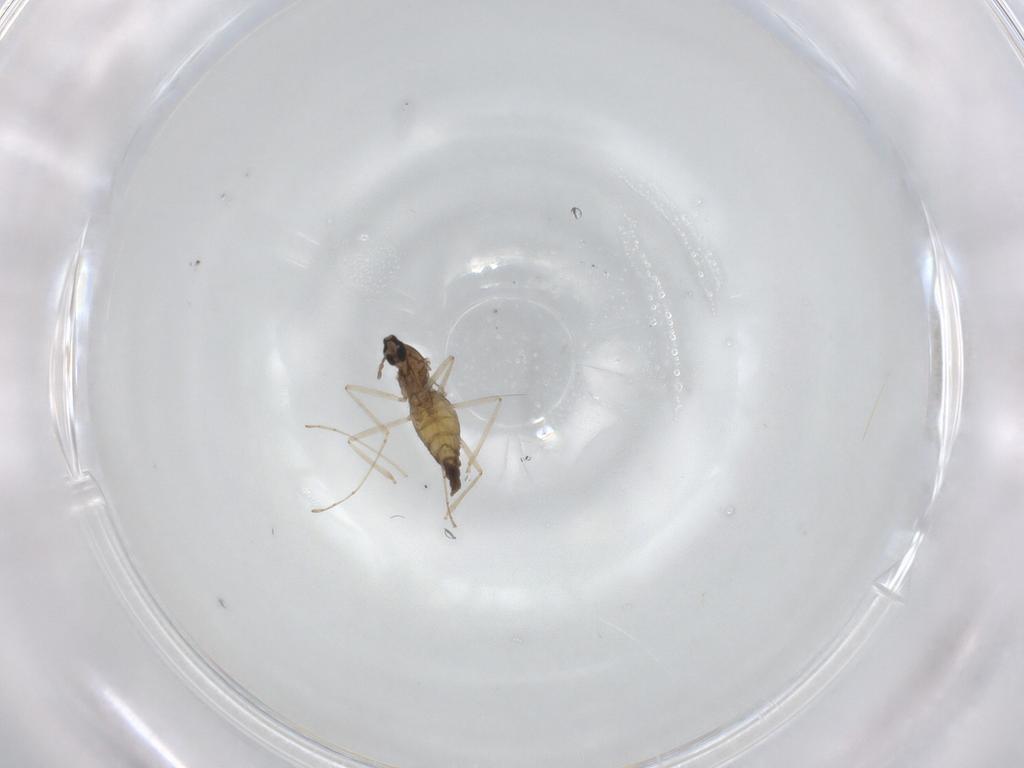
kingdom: Animalia
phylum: Arthropoda
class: Insecta
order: Diptera
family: Cecidomyiidae
